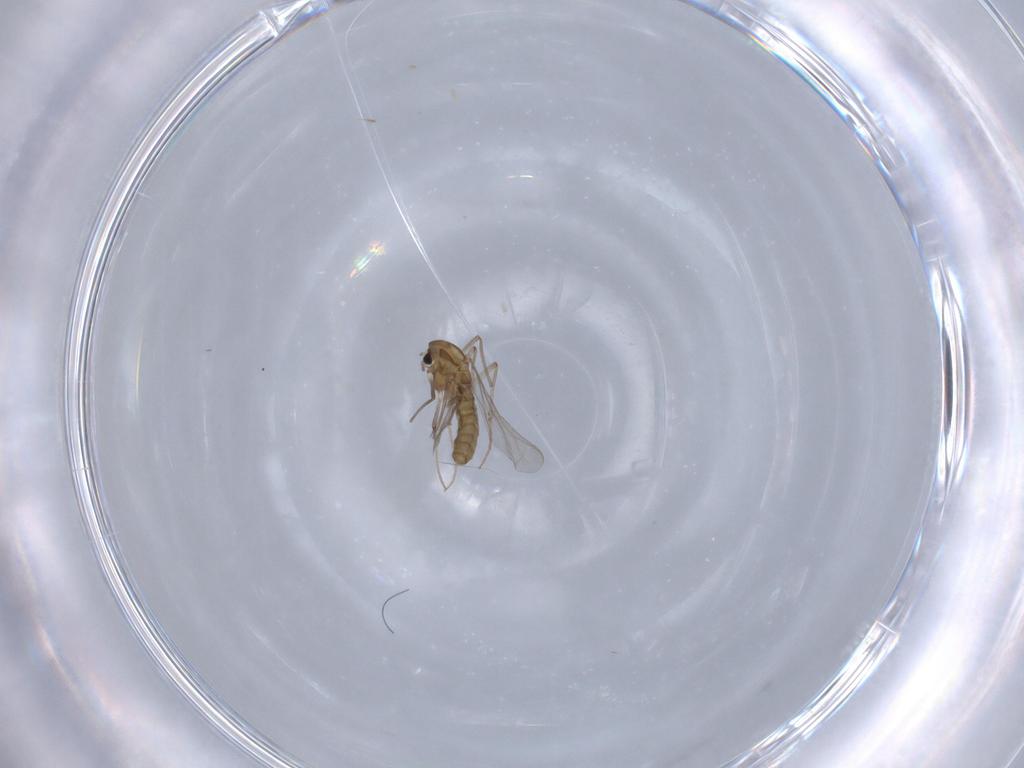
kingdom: Animalia
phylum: Arthropoda
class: Insecta
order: Diptera
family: Chironomidae
